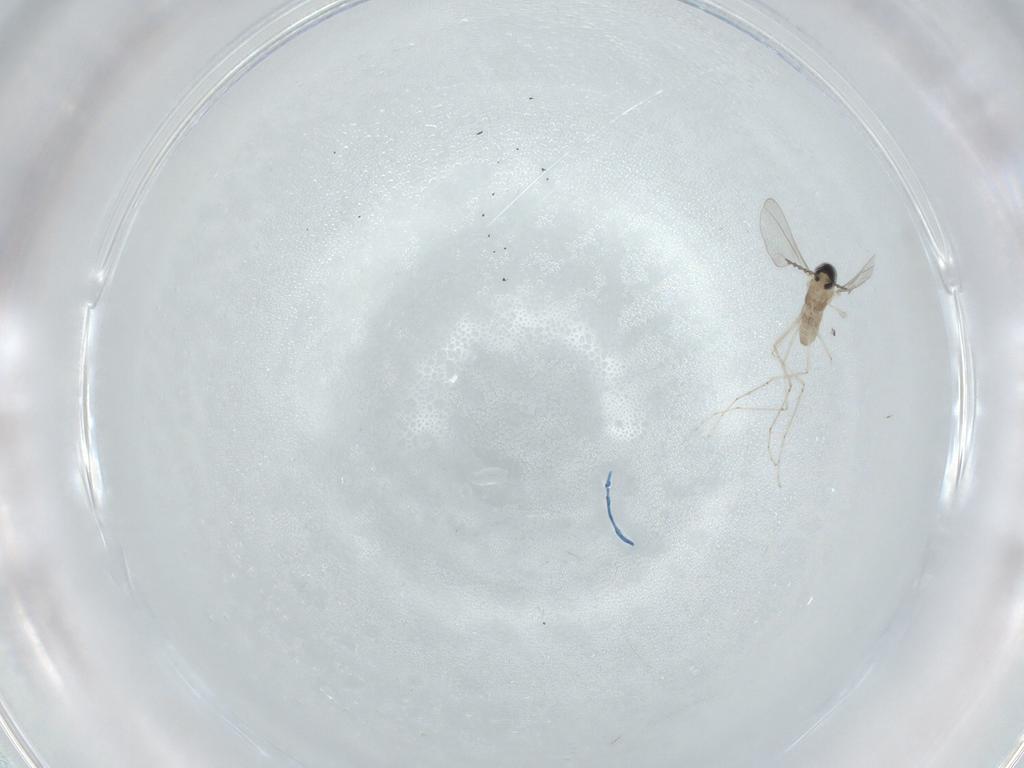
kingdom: Animalia
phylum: Arthropoda
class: Insecta
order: Diptera
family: Cecidomyiidae
